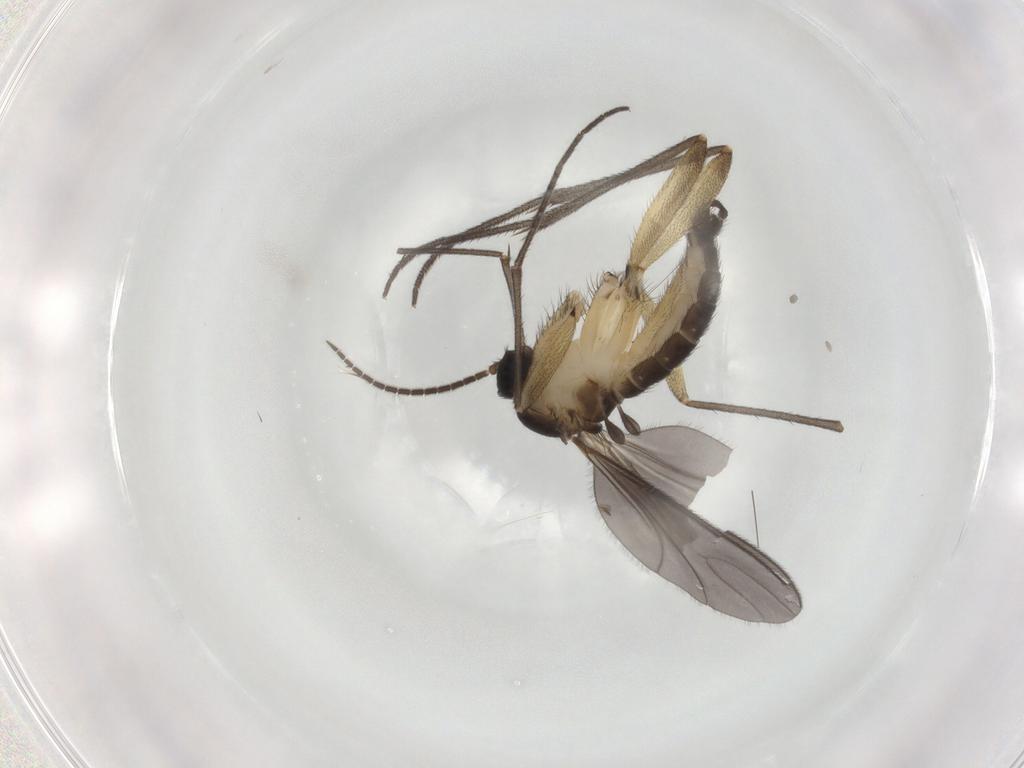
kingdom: Animalia
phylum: Arthropoda
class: Insecta
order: Diptera
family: Sciaridae
